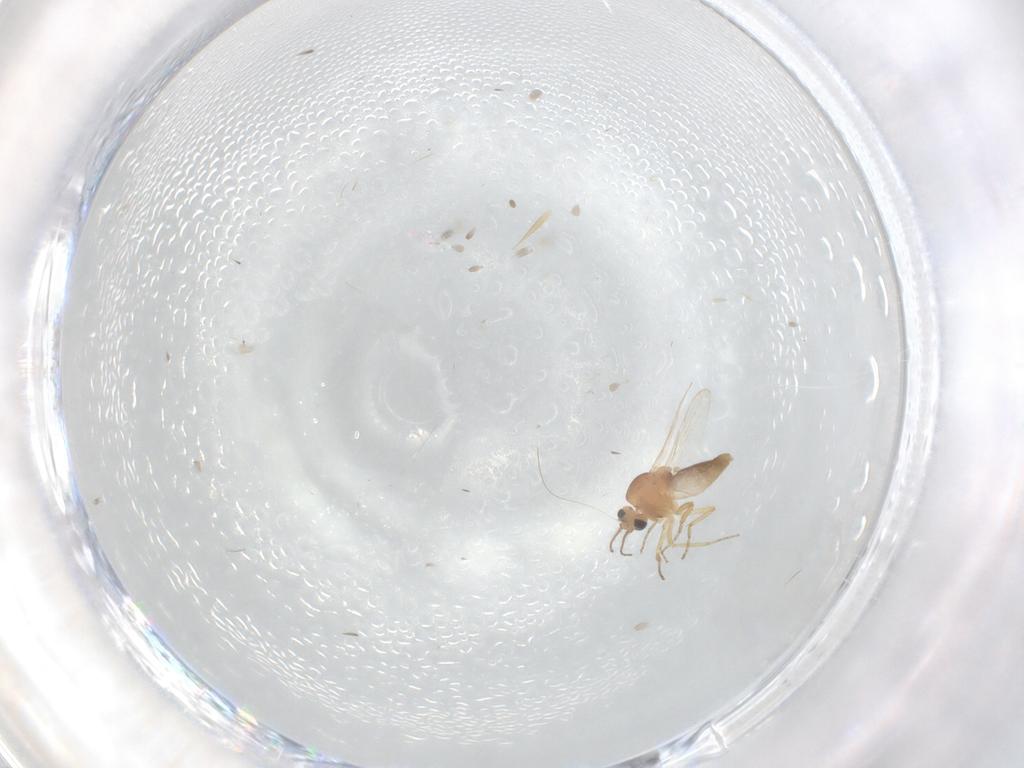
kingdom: Animalia
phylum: Arthropoda
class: Insecta
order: Diptera
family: Ceratopogonidae
